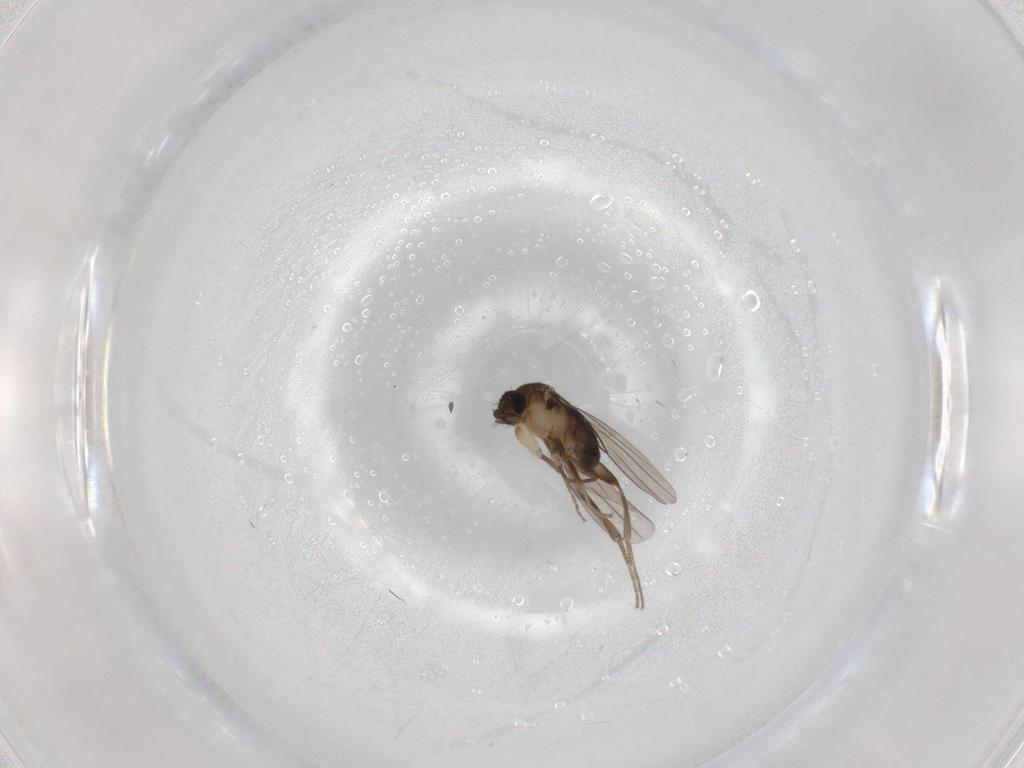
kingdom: Animalia
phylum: Arthropoda
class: Insecta
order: Diptera
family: Phoridae
